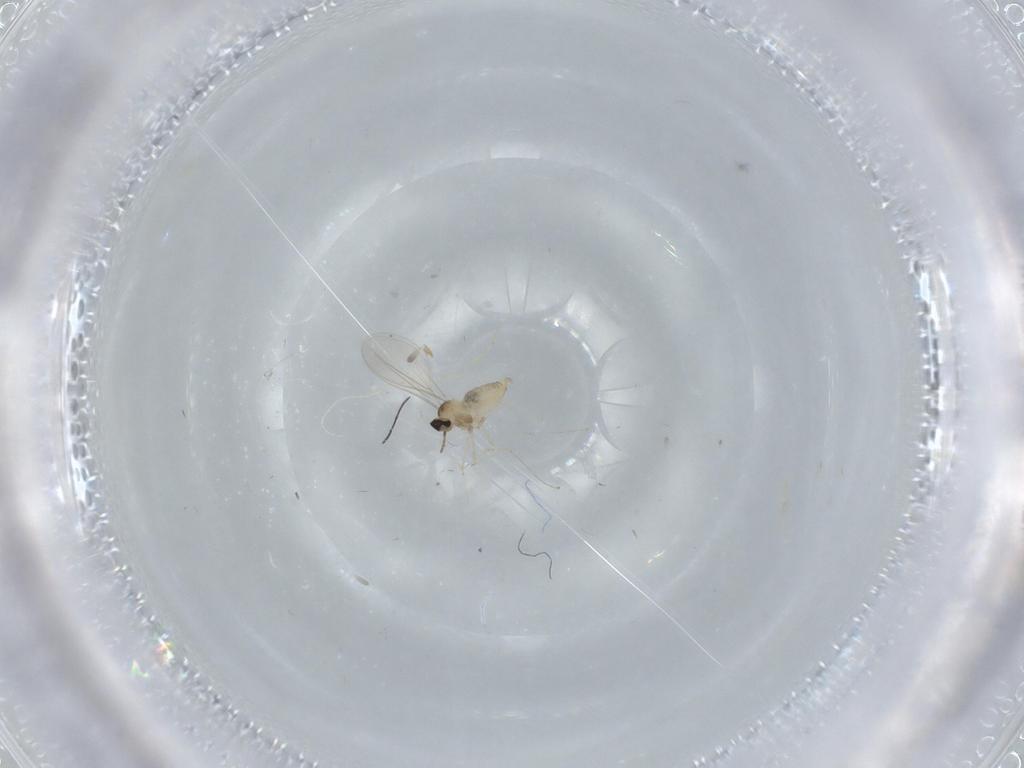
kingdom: Animalia
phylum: Arthropoda
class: Insecta
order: Diptera
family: Cecidomyiidae
